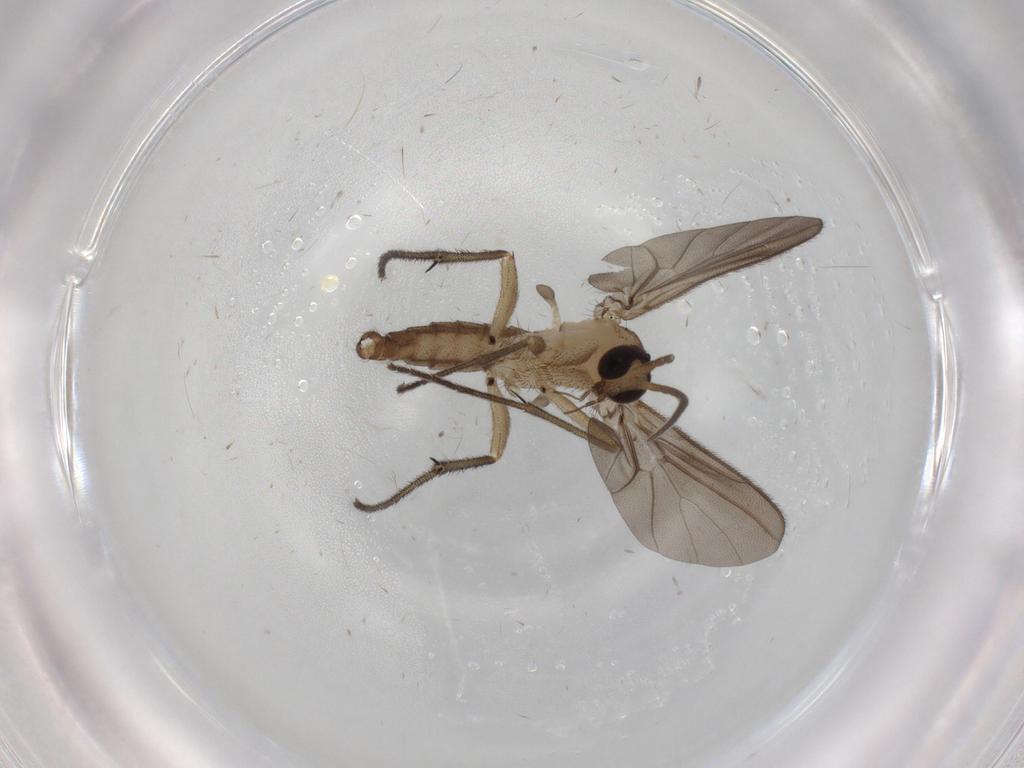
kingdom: Animalia
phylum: Arthropoda
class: Insecta
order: Diptera
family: Diadocidiidae
